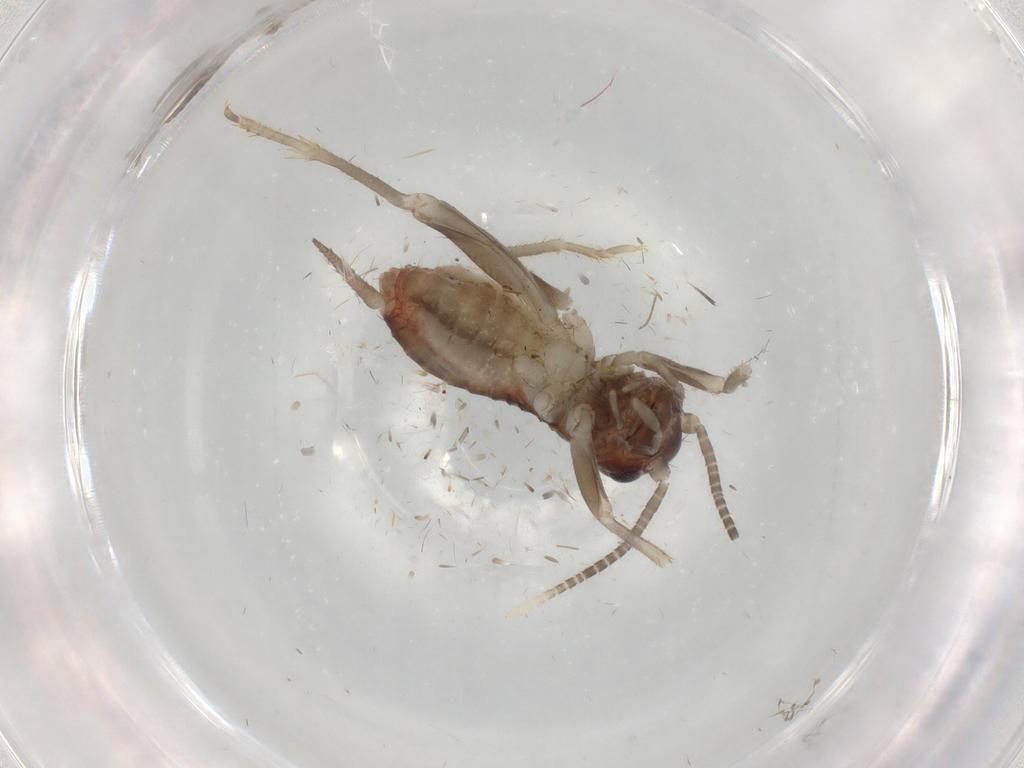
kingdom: Animalia
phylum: Arthropoda
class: Insecta
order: Orthoptera
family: Gryllidae
